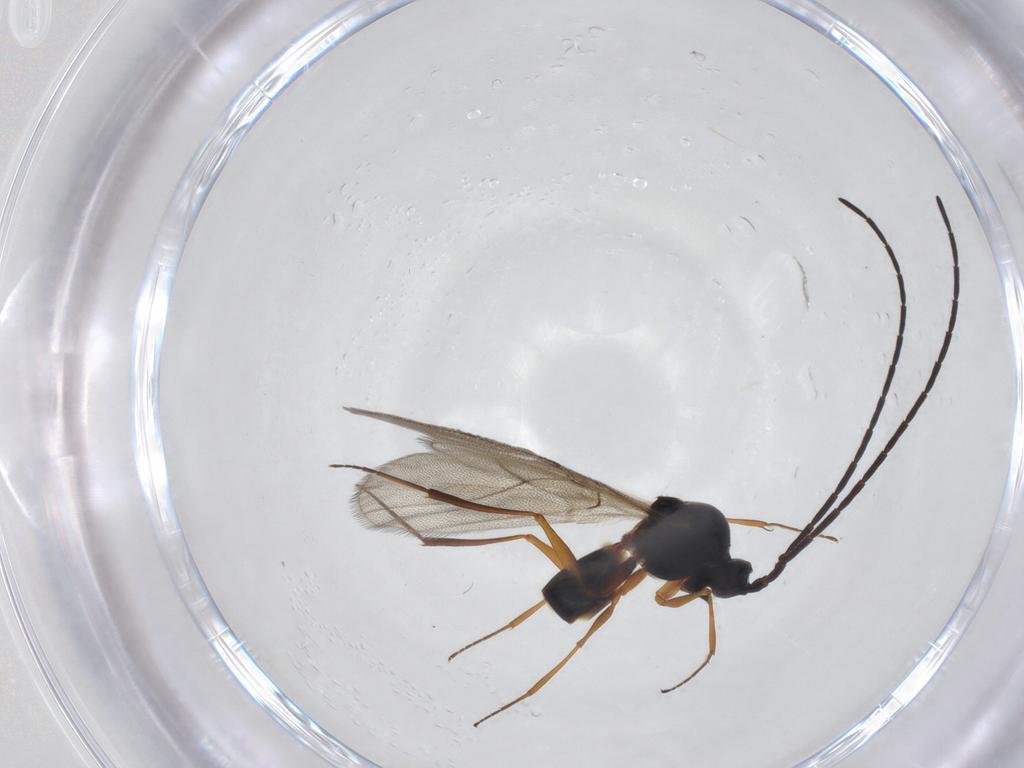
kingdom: Animalia
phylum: Arthropoda
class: Insecta
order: Hymenoptera
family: Figitidae
